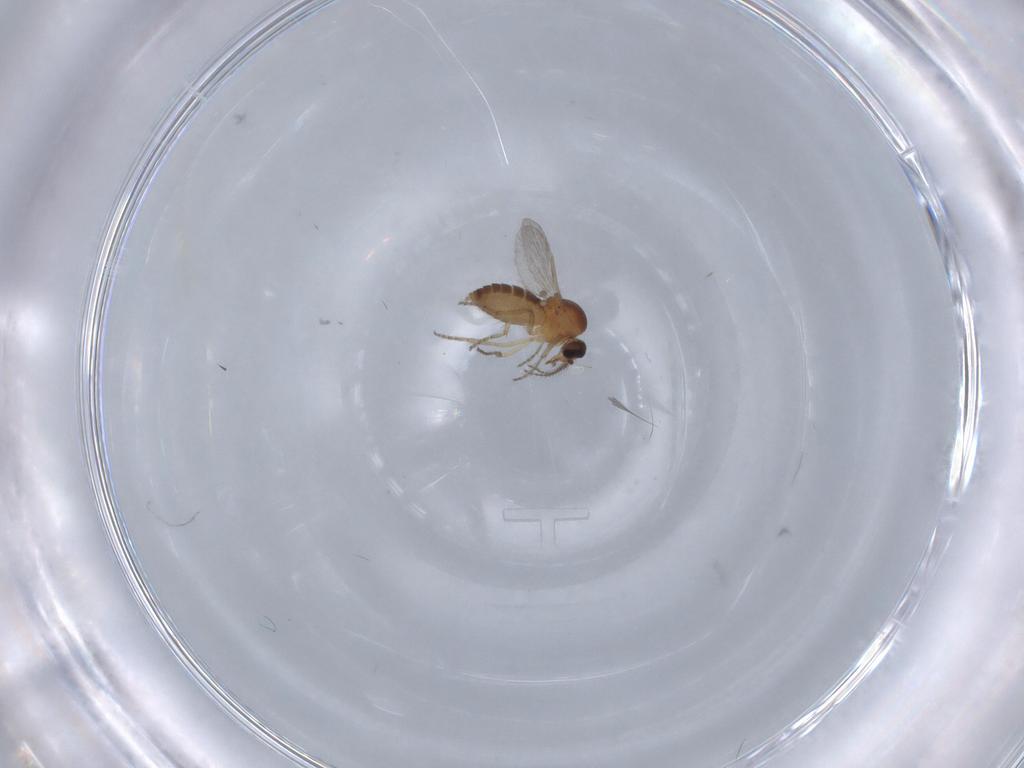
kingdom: Animalia
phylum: Arthropoda
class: Insecta
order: Diptera
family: Ceratopogonidae
